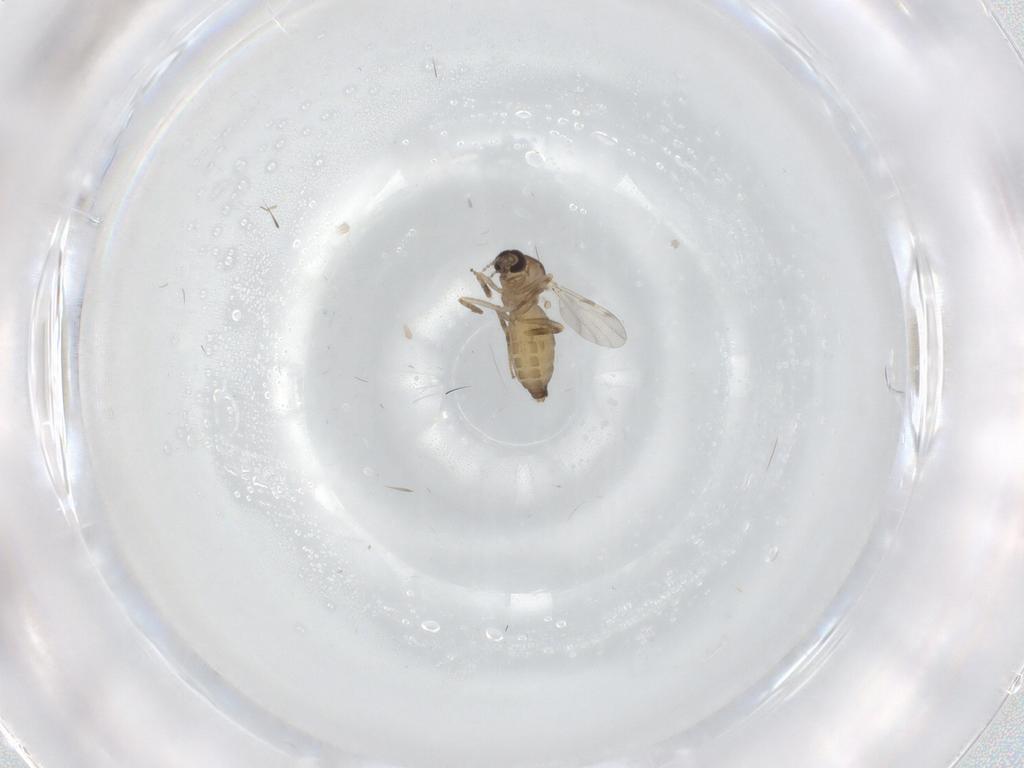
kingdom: Animalia
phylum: Arthropoda
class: Insecta
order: Diptera
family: Ceratopogonidae
